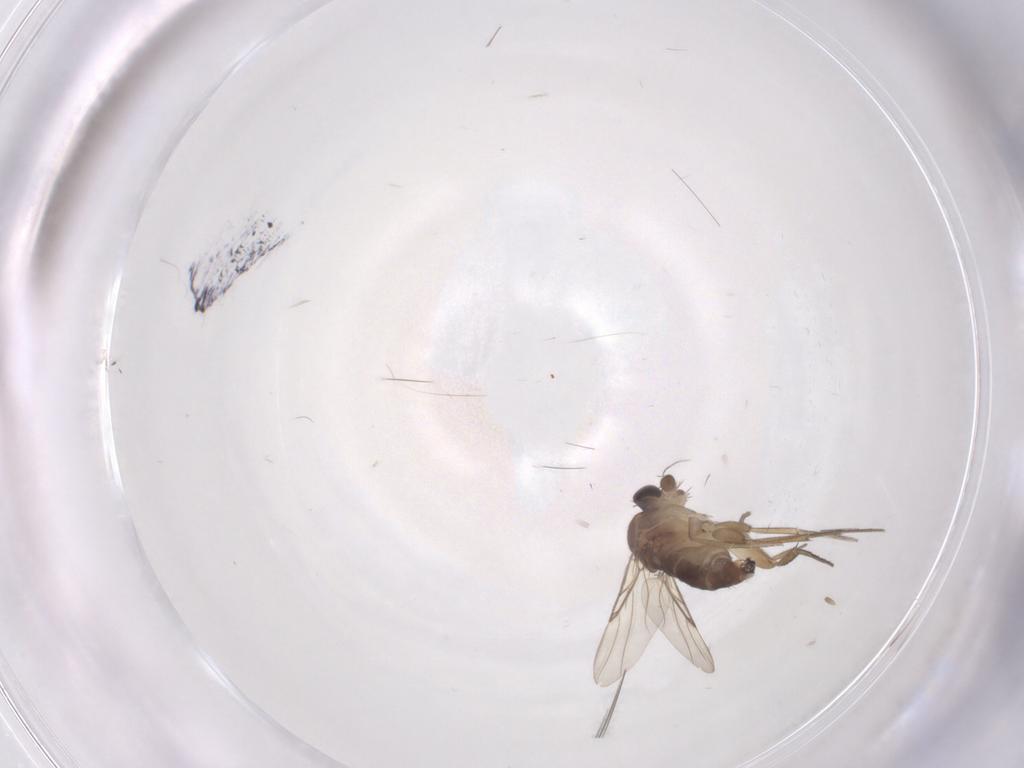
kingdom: Animalia
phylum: Arthropoda
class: Insecta
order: Diptera
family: Phoridae
